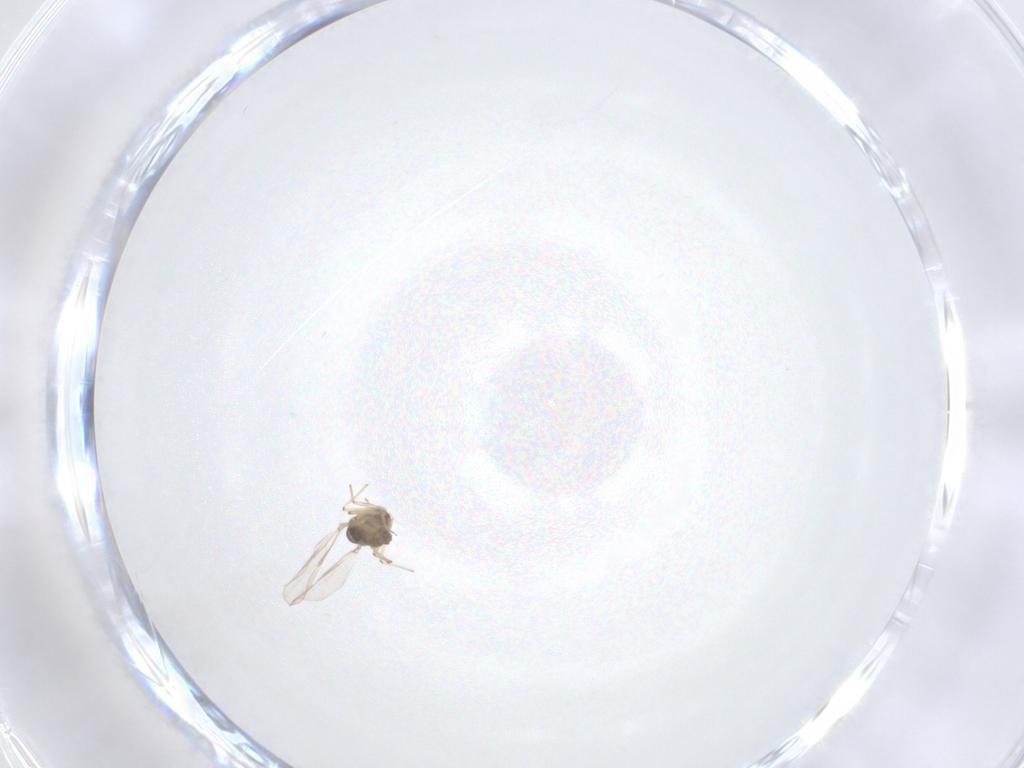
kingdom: Animalia
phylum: Arthropoda
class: Insecta
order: Diptera
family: Chironomidae
